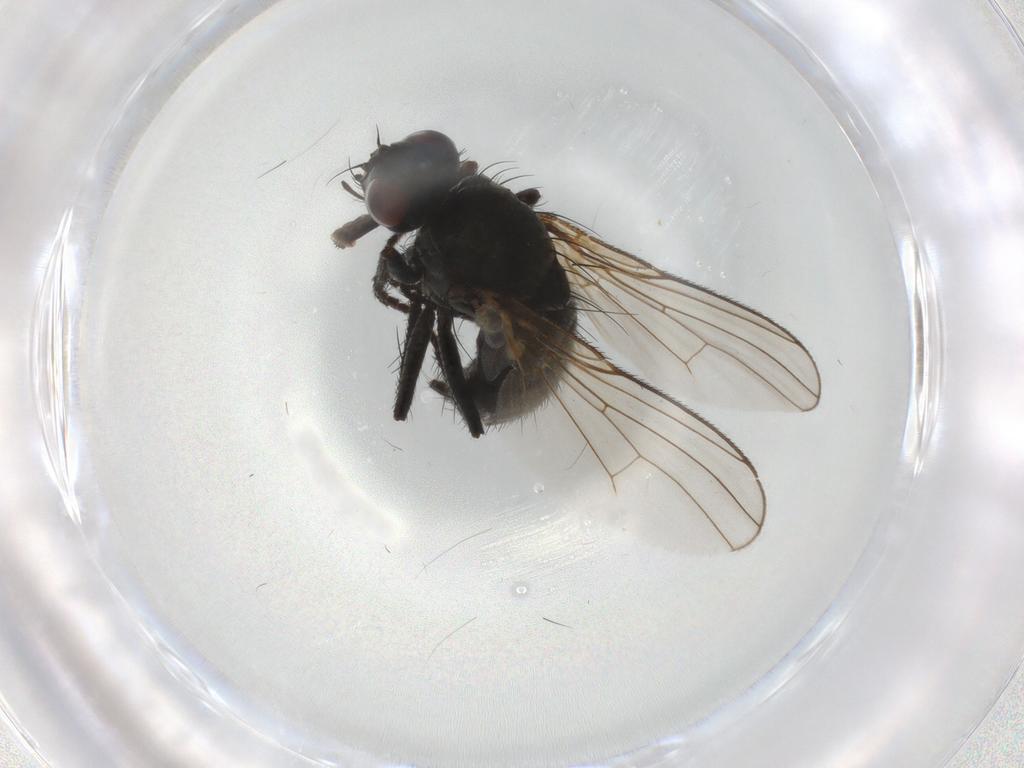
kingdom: Animalia
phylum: Arthropoda
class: Insecta
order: Diptera
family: Muscidae
